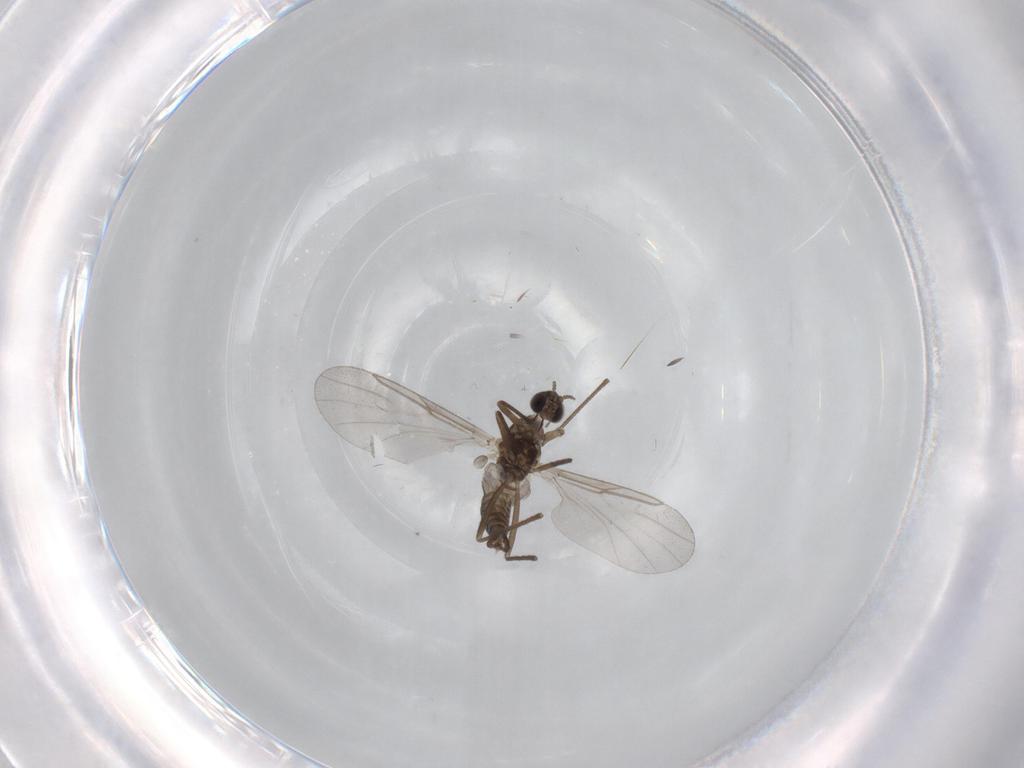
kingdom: Animalia
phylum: Arthropoda
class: Insecta
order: Diptera
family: Cecidomyiidae
